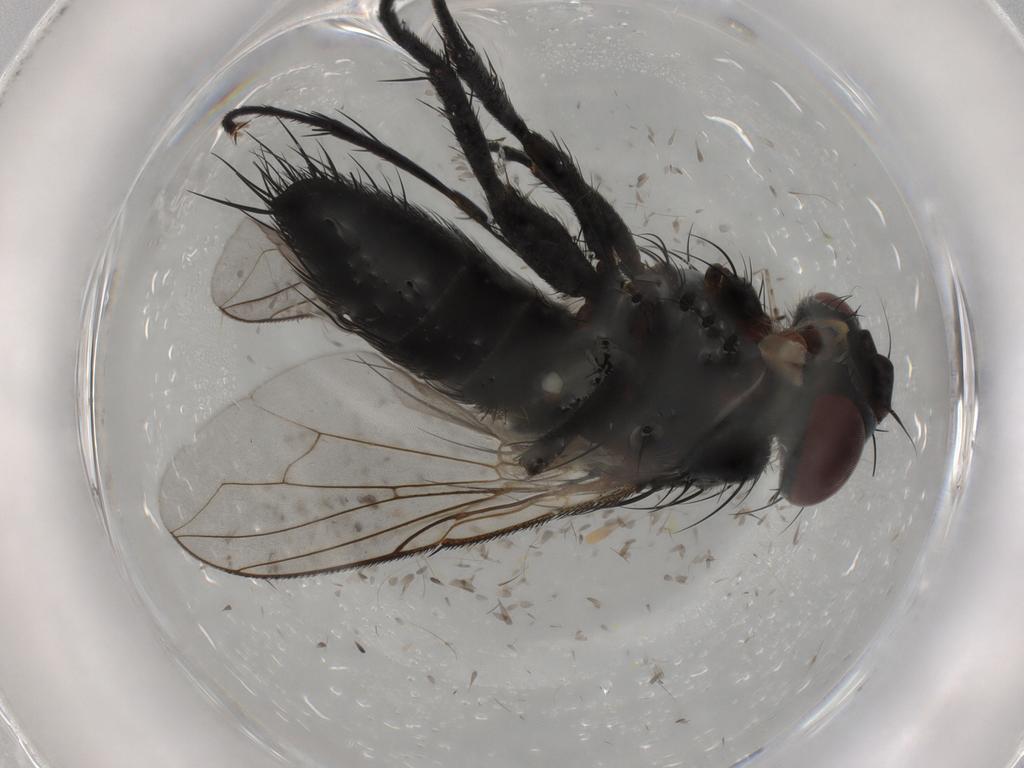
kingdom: Animalia
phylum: Arthropoda
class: Insecta
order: Diptera
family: Tachinidae
